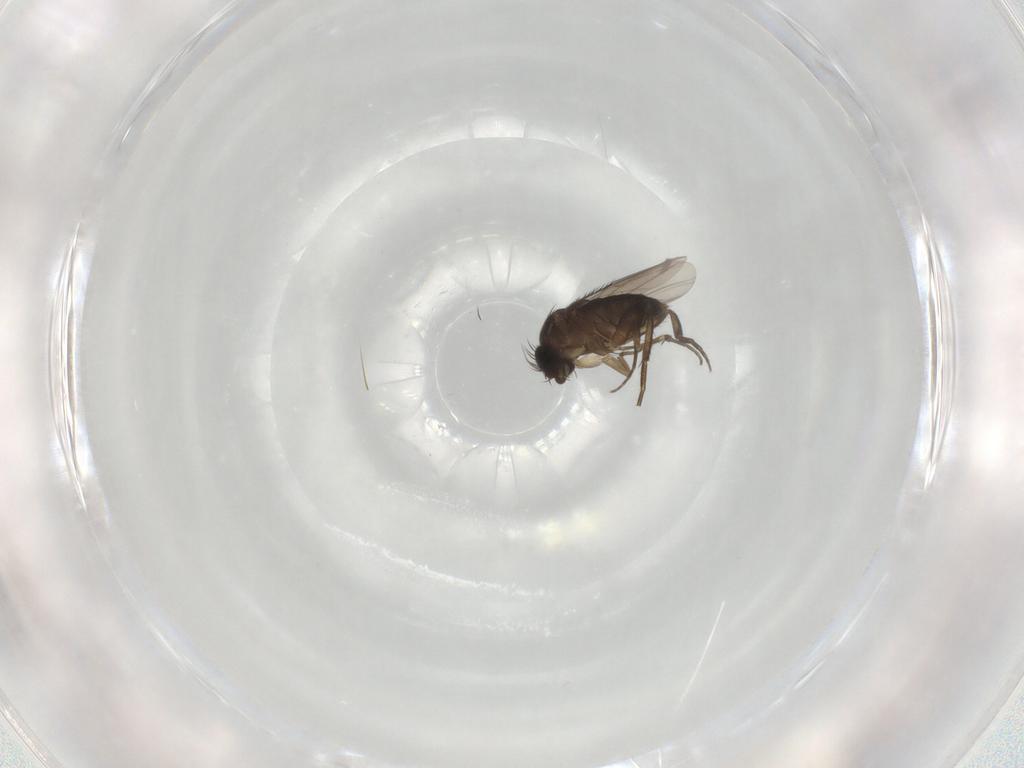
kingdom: Animalia
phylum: Arthropoda
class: Insecta
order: Diptera
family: Phoridae
